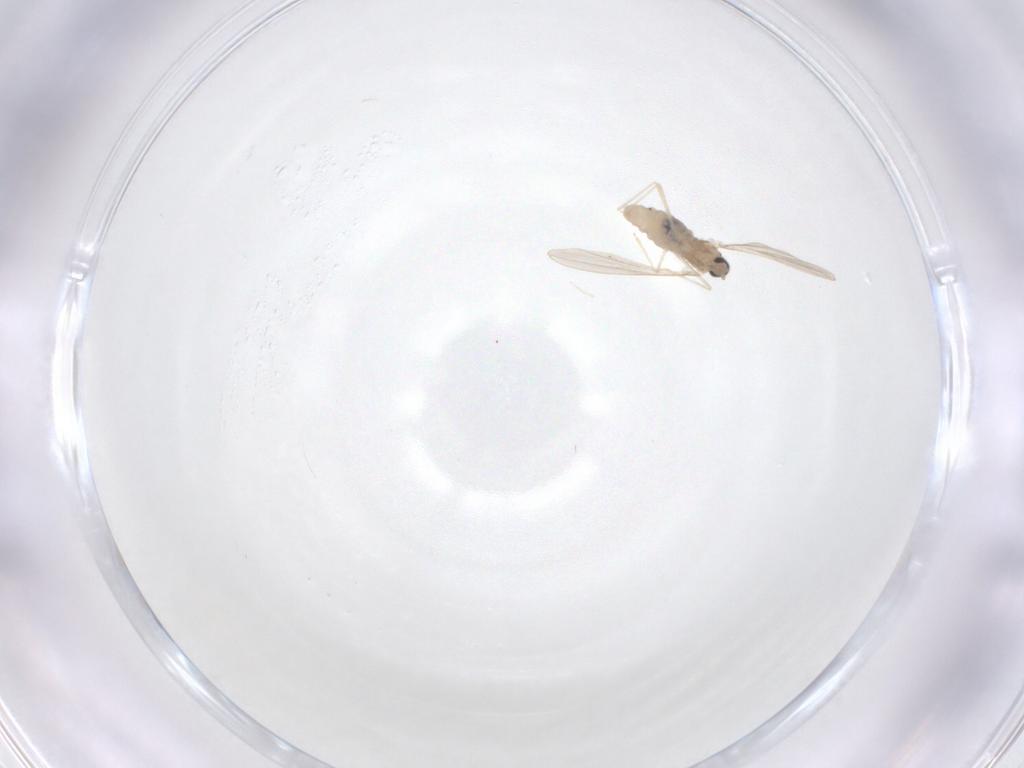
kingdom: Animalia
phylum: Arthropoda
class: Insecta
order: Diptera
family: Cecidomyiidae
